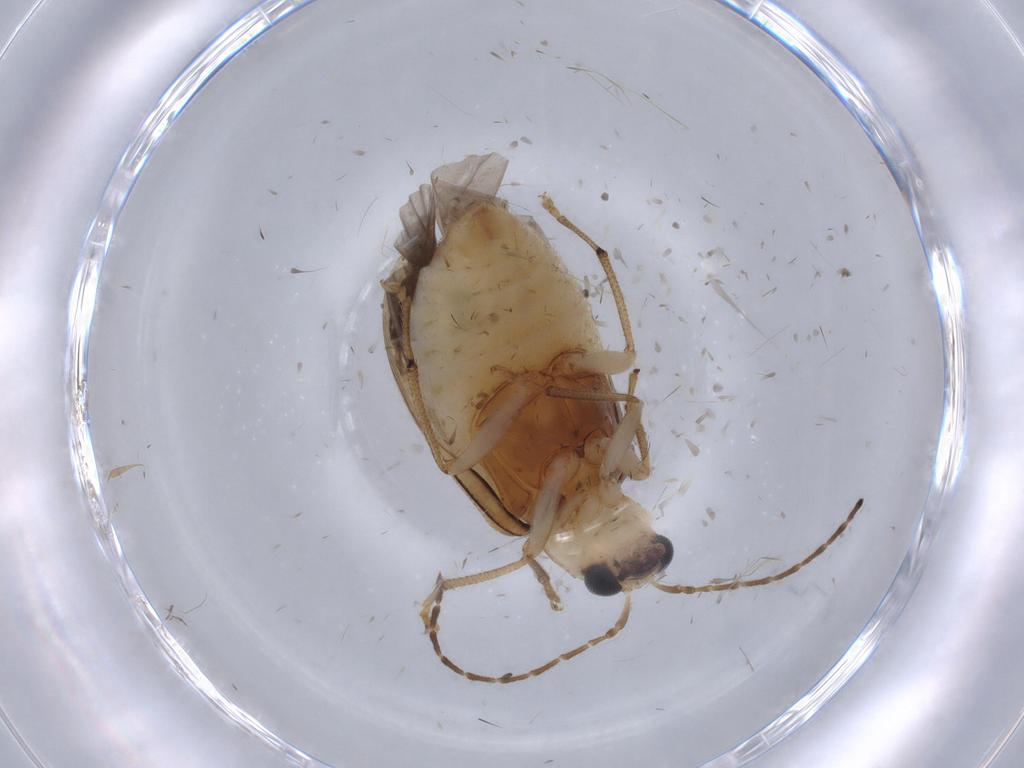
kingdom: Animalia
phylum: Arthropoda
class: Insecta
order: Coleoptera
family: Chrysomelidae
